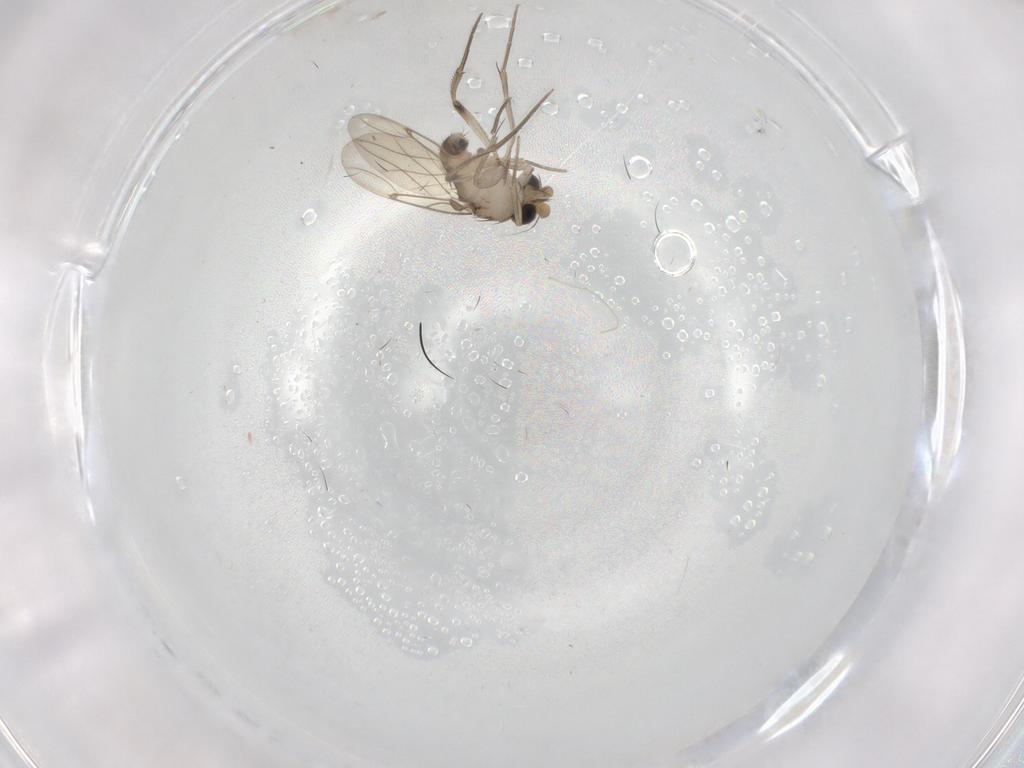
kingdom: Animalia
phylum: Arthropoda
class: Insecta
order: Diptera
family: Phoridae
